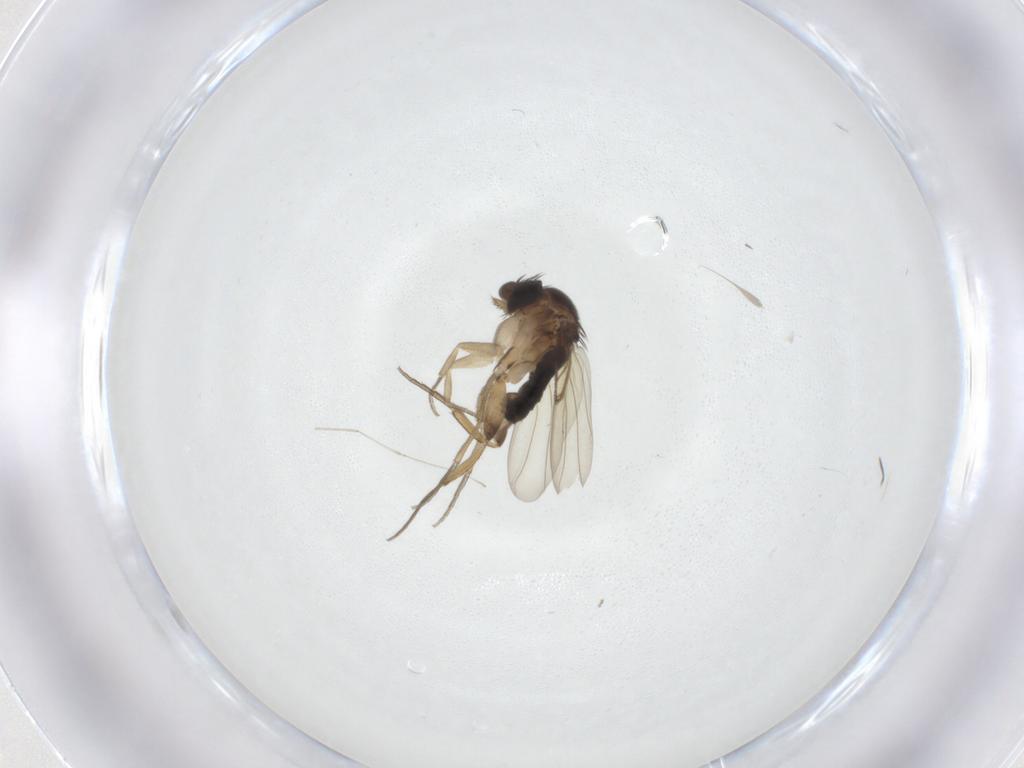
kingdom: Animalia
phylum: Arthropoda
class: Insecta
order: Diptera
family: Phoridae
